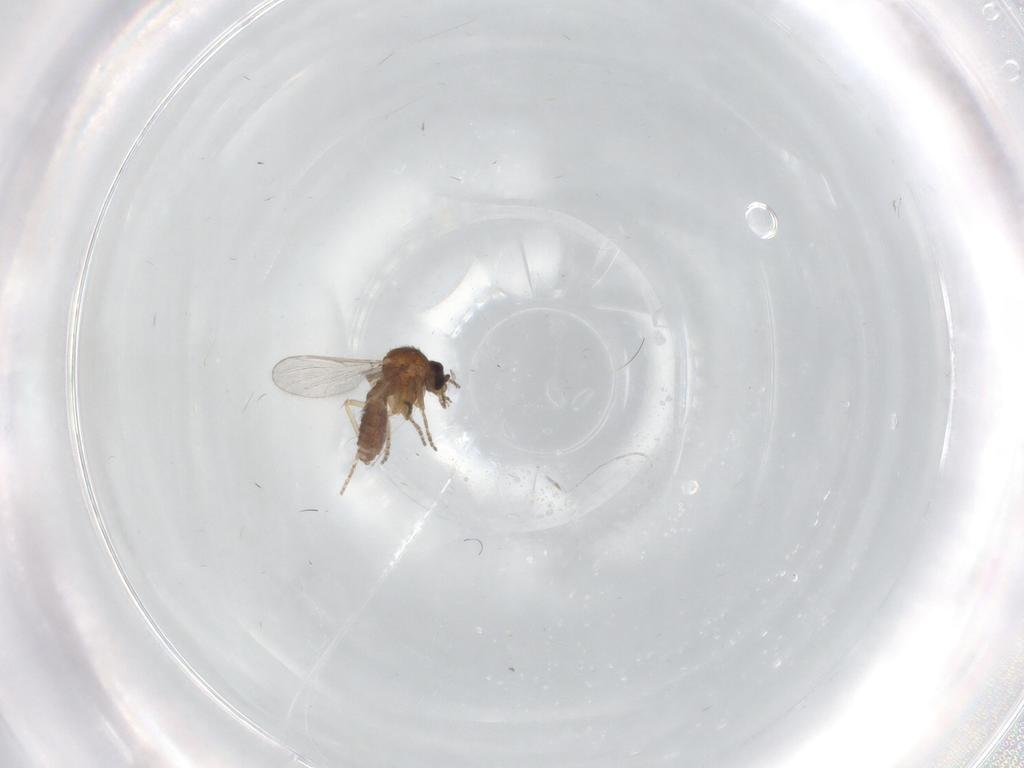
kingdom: Animalia
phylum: Arthropoda
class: Insecta
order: Diptera
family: Ceratopogonidae
